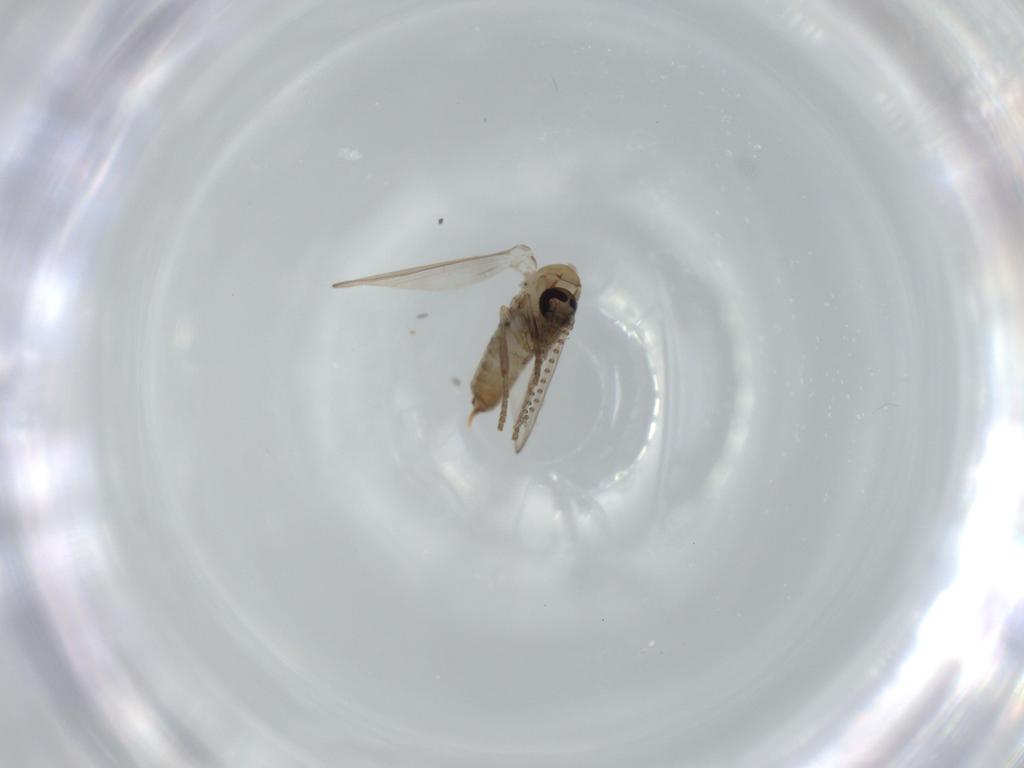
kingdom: Animalia
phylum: Arthropoda
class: Insecta
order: Diptera
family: Psychodidae
